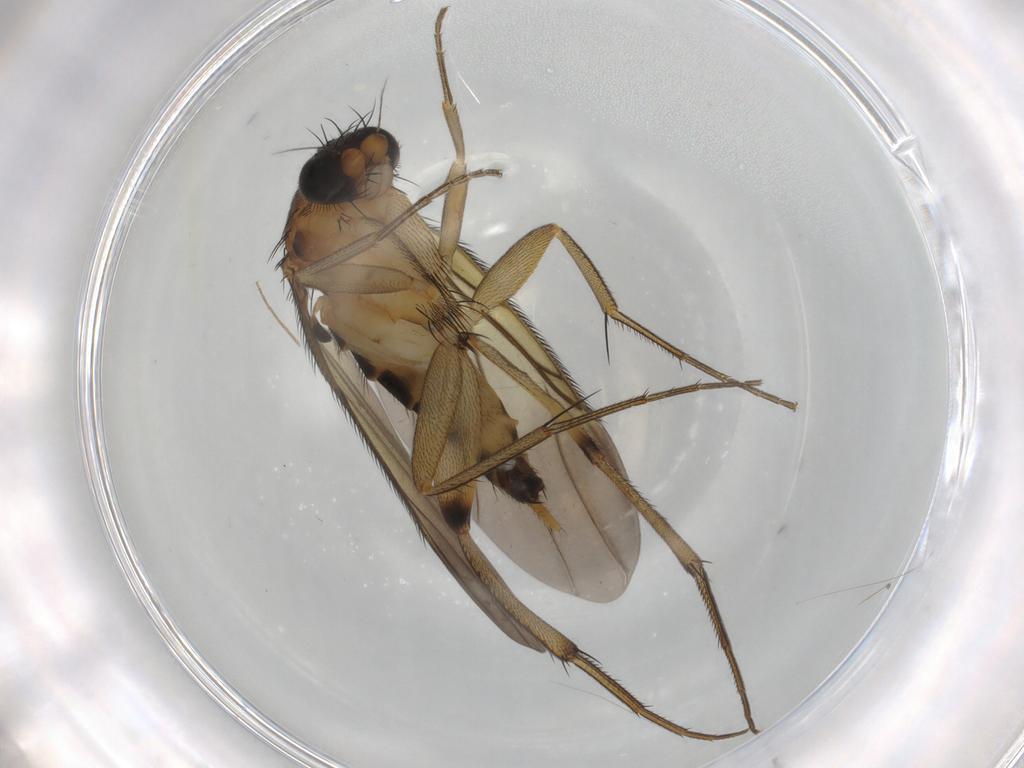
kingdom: Animalia
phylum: Arthropoda
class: Insecta
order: Diptera
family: Phoridae
